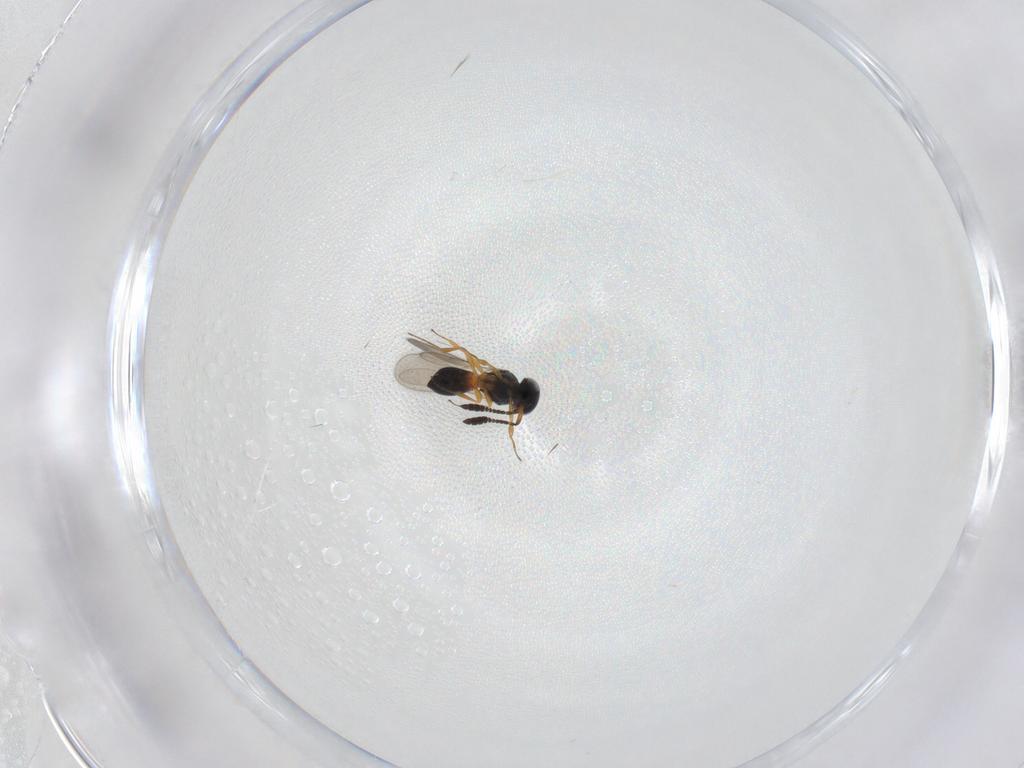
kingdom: Animalia
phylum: Arthropoda
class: Insecta
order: Hymenoptera
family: Scelionidae
